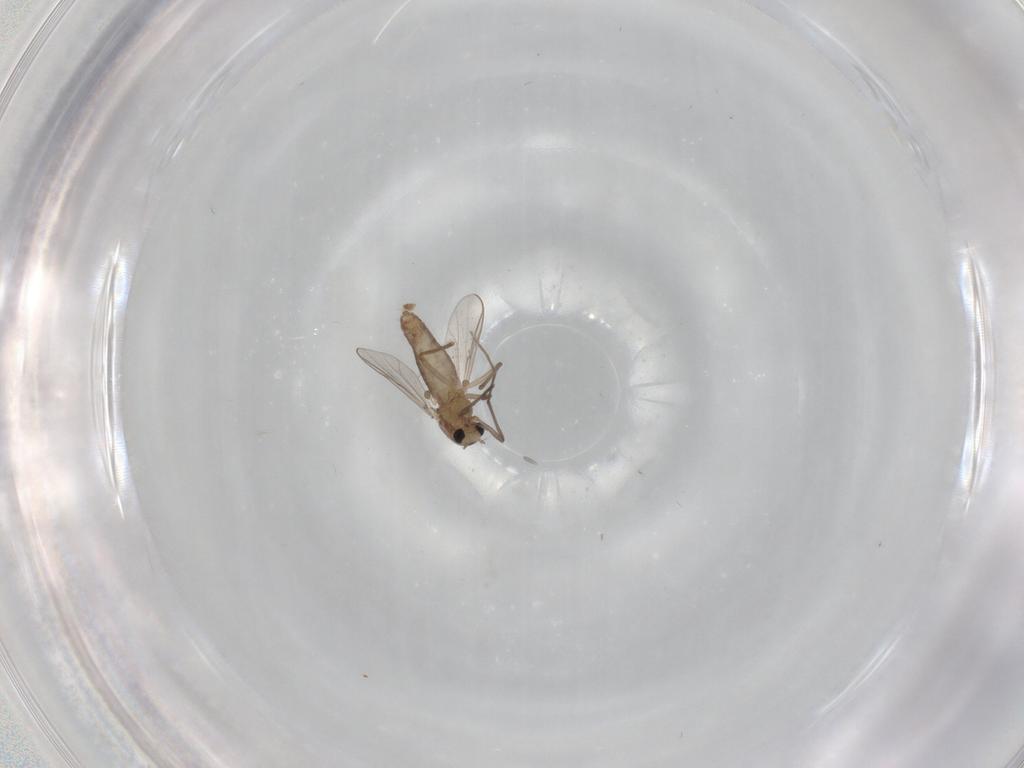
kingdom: Animalia
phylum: Arthropoda
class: Insecta
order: Diptera
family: Chironomidae
